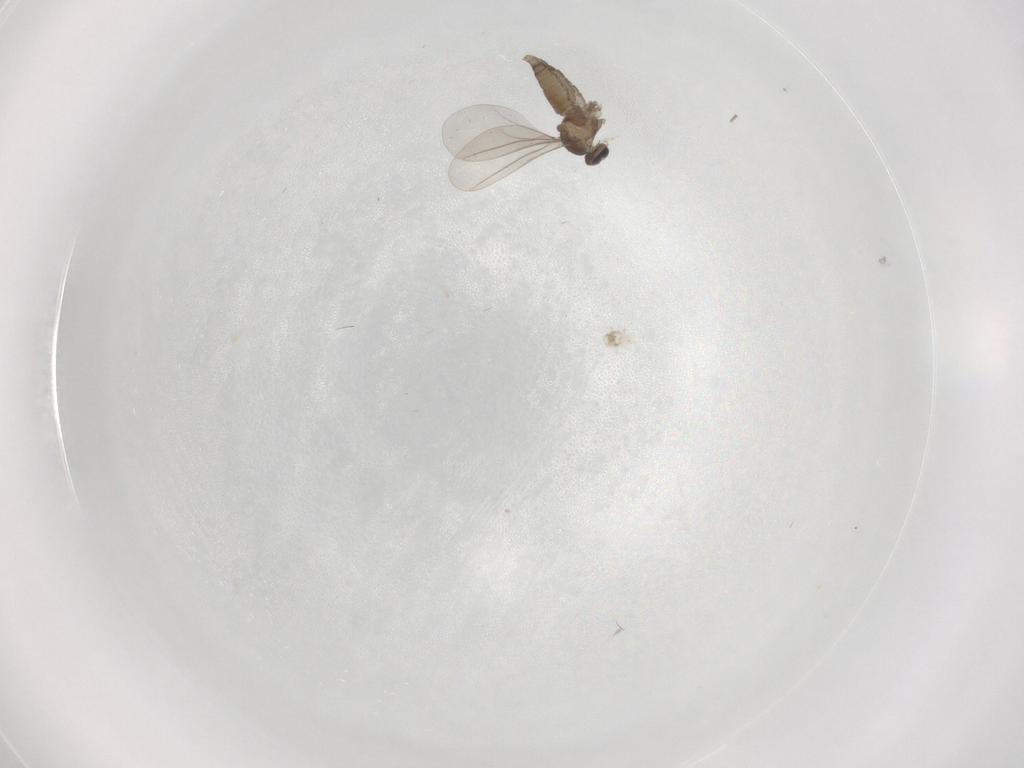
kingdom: Animalia
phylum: Arthropoda
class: Insecta
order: Diptera
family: Cecidomyiidae
